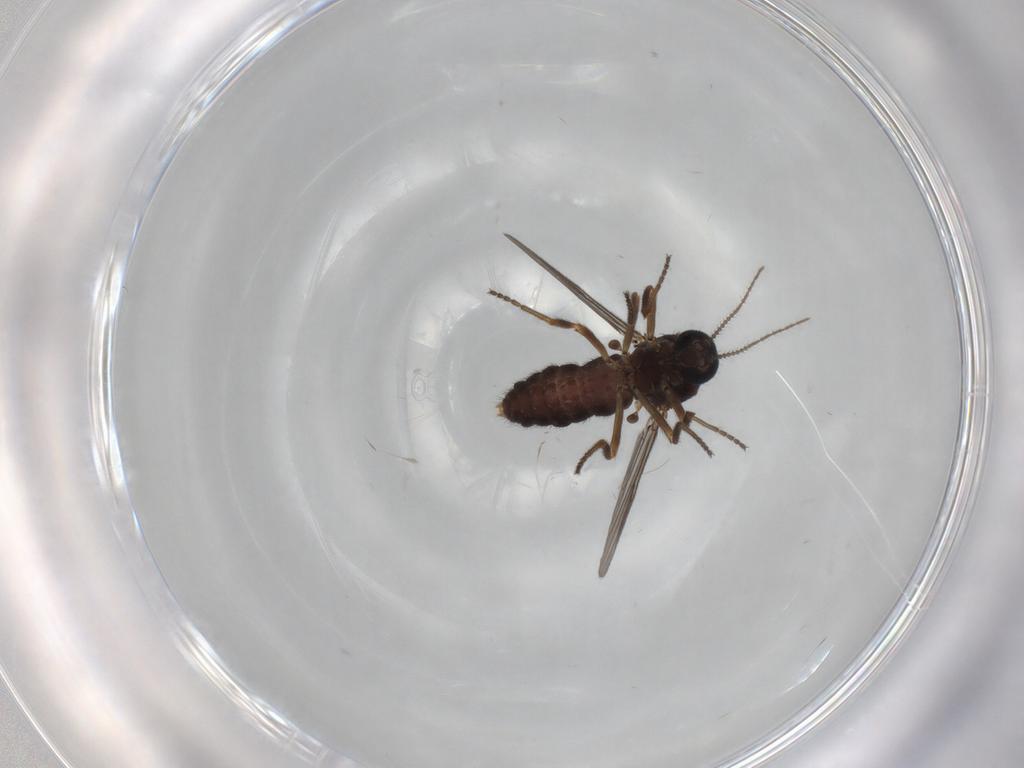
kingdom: Animalia
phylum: Arthropoda
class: Insecta
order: Diptera
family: Ceratopogonidae
